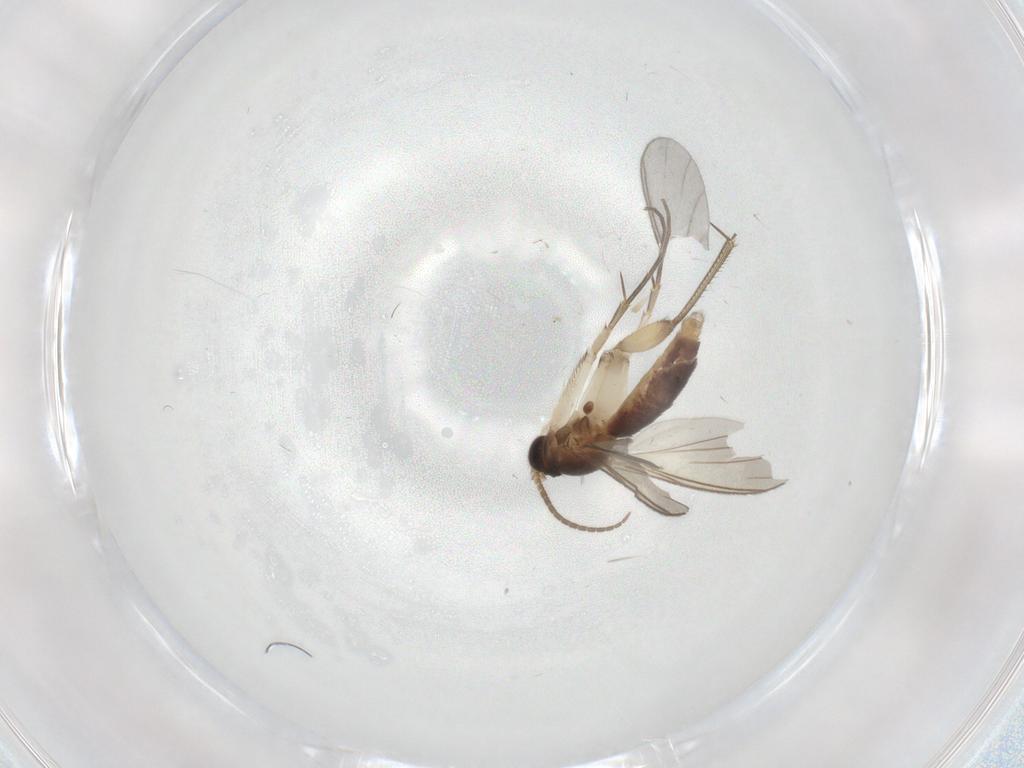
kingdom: Animalia
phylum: Arthropoda
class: Insecta
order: Diptera
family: Mycetophilidae
